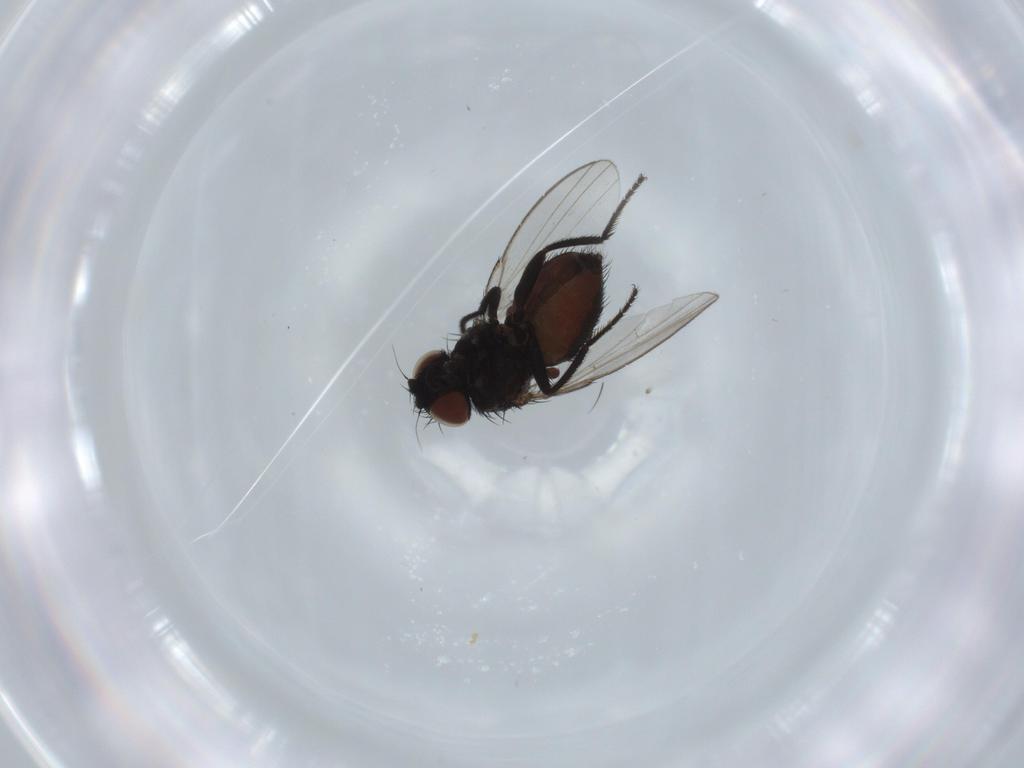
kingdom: Animalia
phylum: Arthropoda
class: Insecta
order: Diptera
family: Milichiidae
